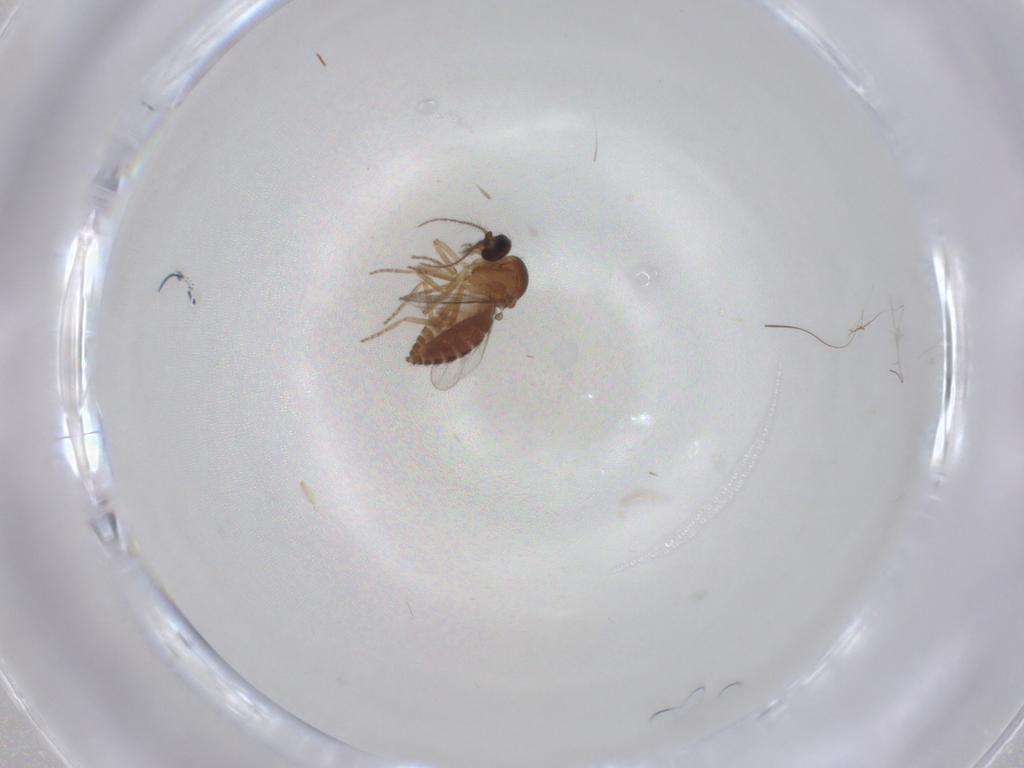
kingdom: Animalia
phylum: Arthropoda
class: Insecta
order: Diptera
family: Ceratopogonidae
